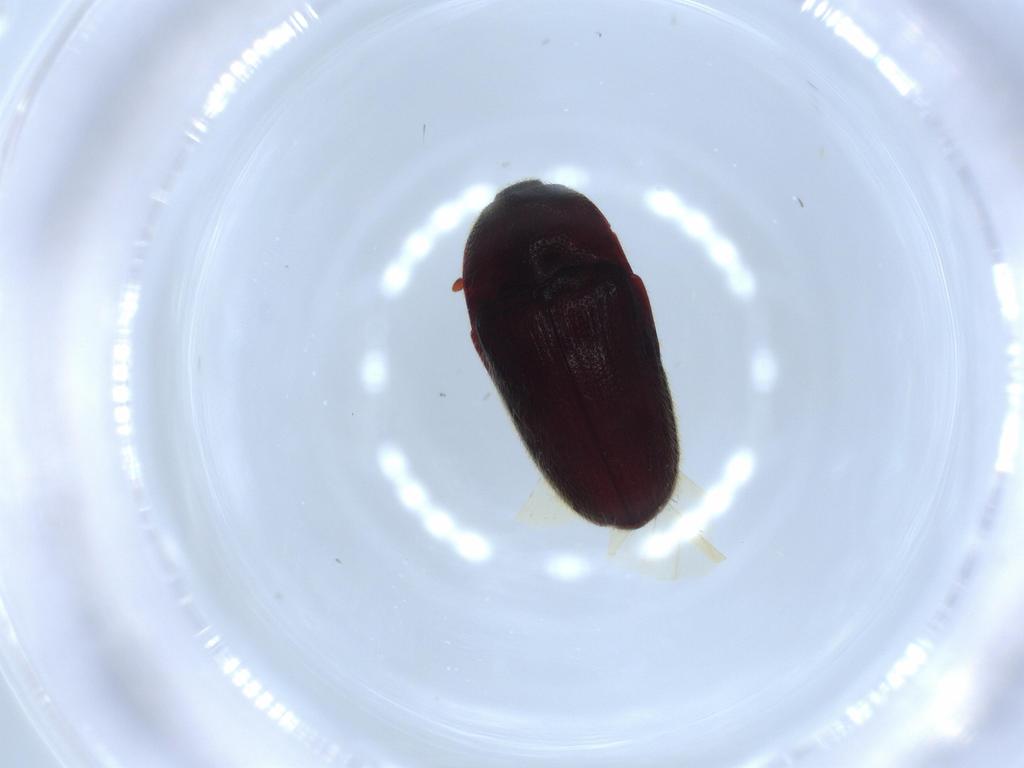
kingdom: Animalia
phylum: Arthropoda
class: Insecta
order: Coleoptera
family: Throscidae
